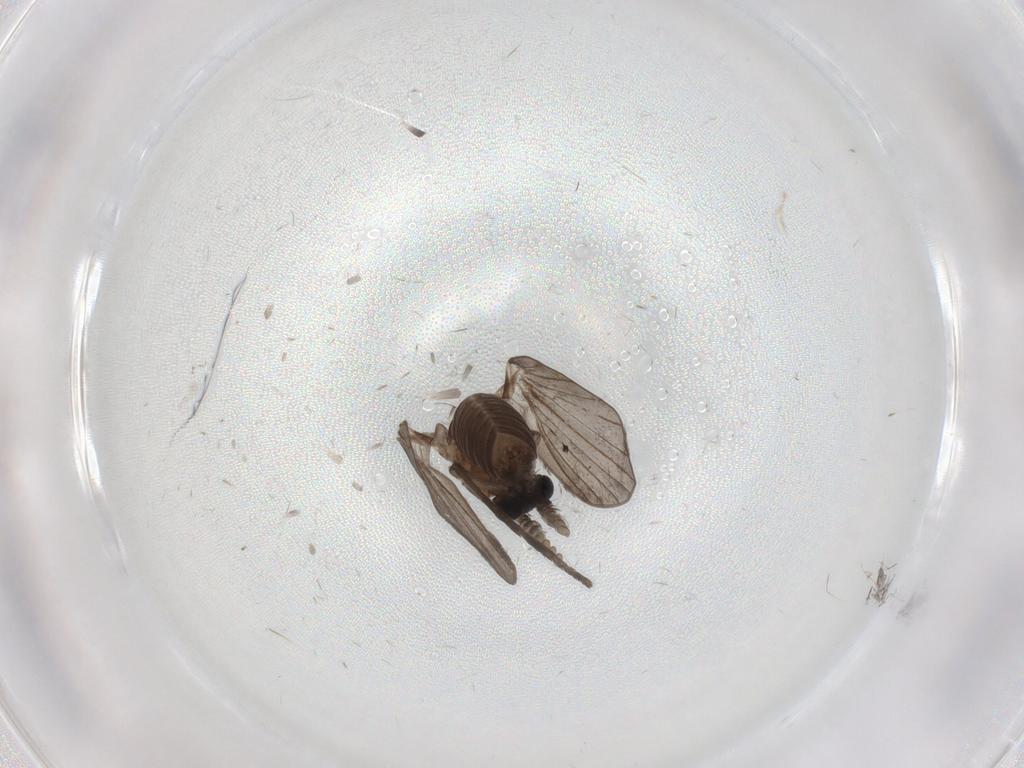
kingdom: Animalia
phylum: Arthropoda
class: Insecta
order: Diptera
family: Psychodidae
